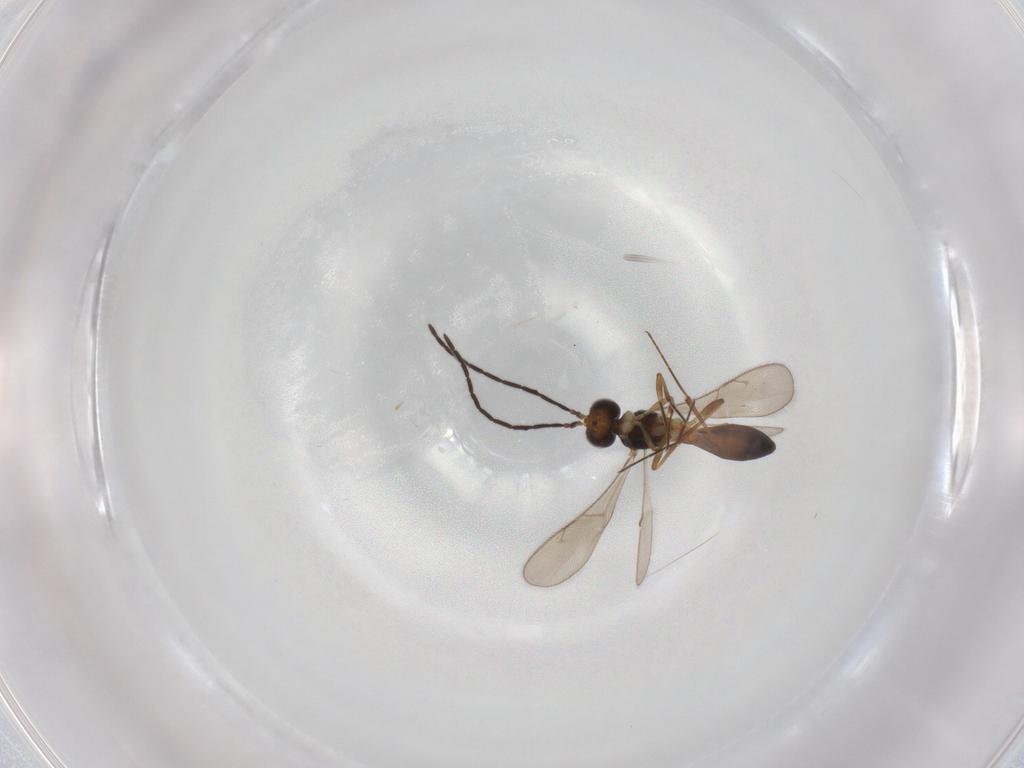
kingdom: Animalia
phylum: Arthropoda
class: Insecta
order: Hymenoptera
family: Scelionidae
